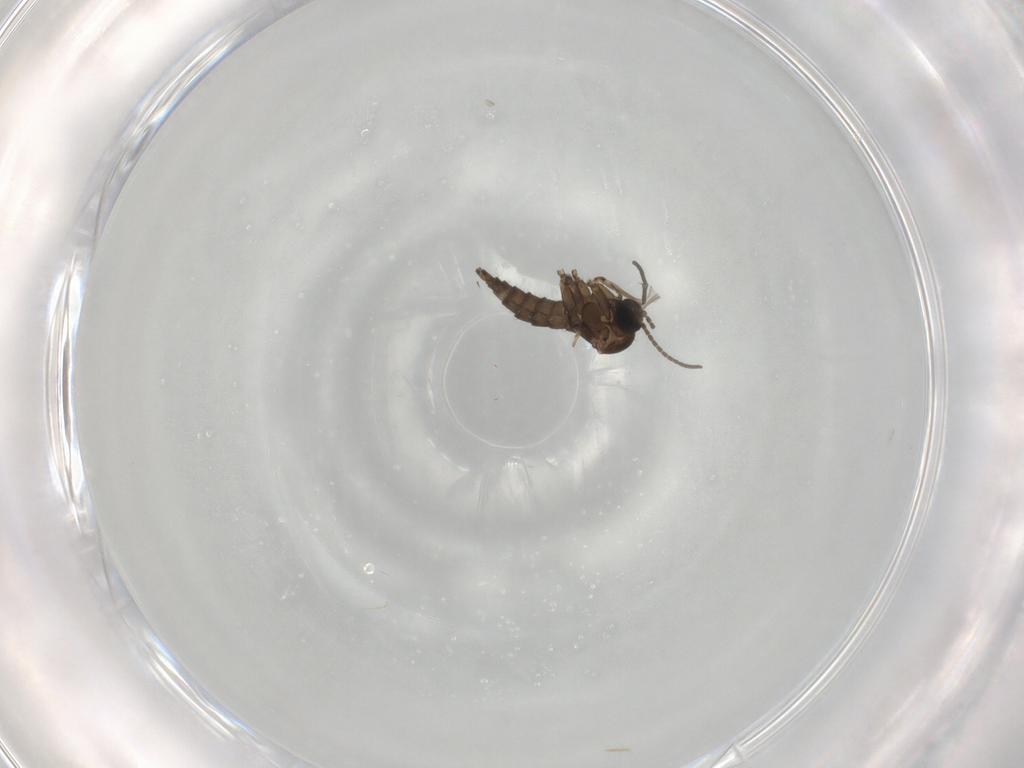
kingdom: Animalia
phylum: Arthropoda
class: Insecta
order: Diptera
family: Sciaridae
